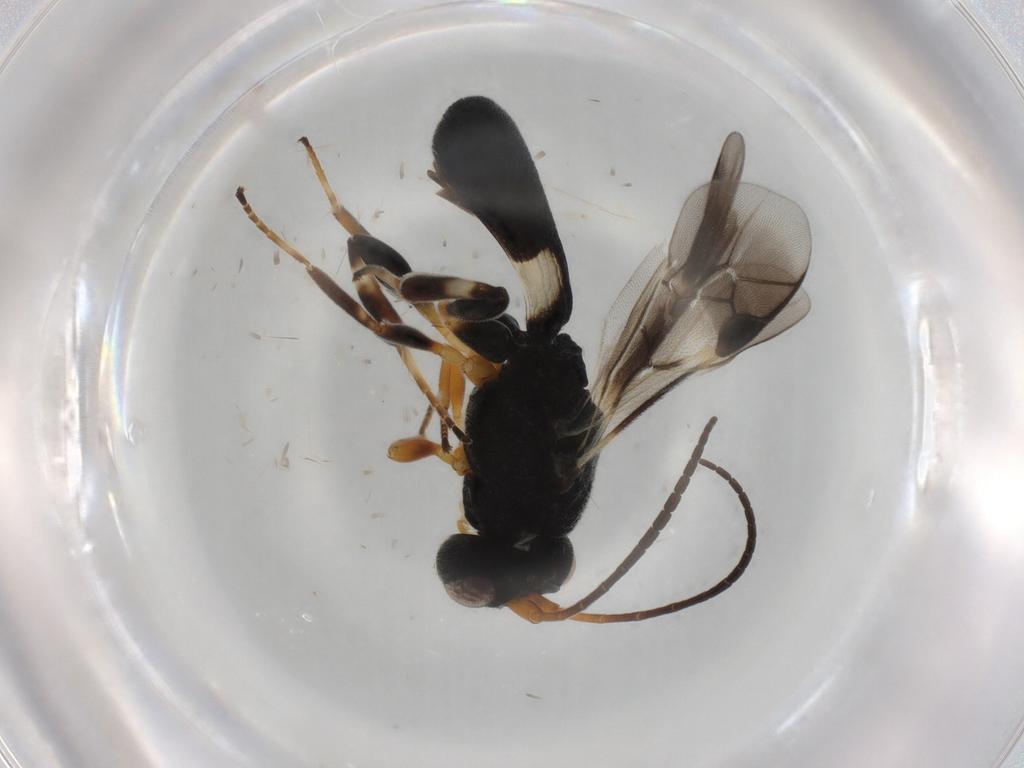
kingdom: Animalia
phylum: Arthropoda
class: Insecta
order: Hymenoptera
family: Braconidae
